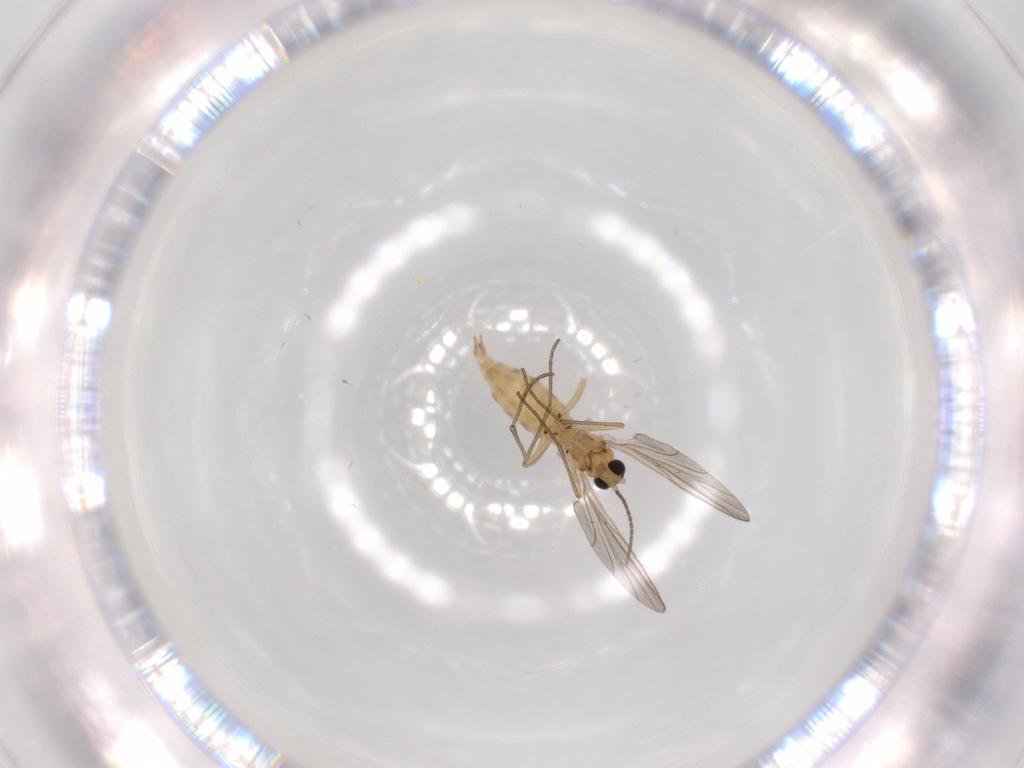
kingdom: Animalia
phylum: Arthropoda
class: Insecta
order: Diptera
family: Sciaridae
